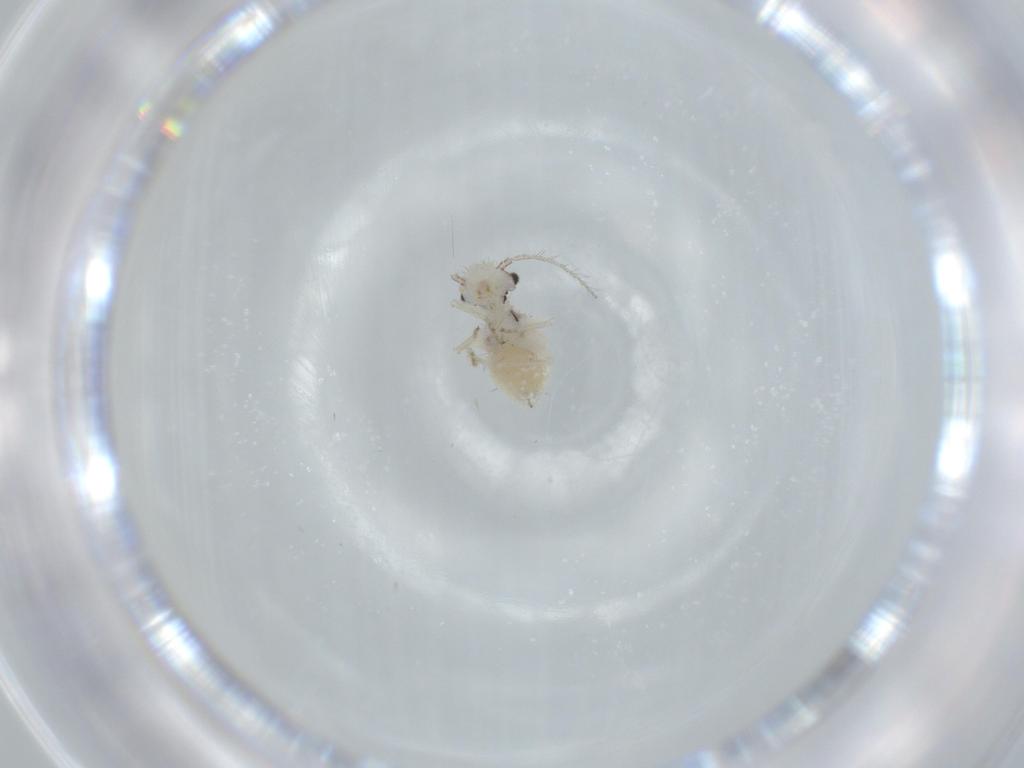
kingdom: Animalia
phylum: Arthropoda
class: Insecta
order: Psocodea
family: Pseudocaeciliidae
